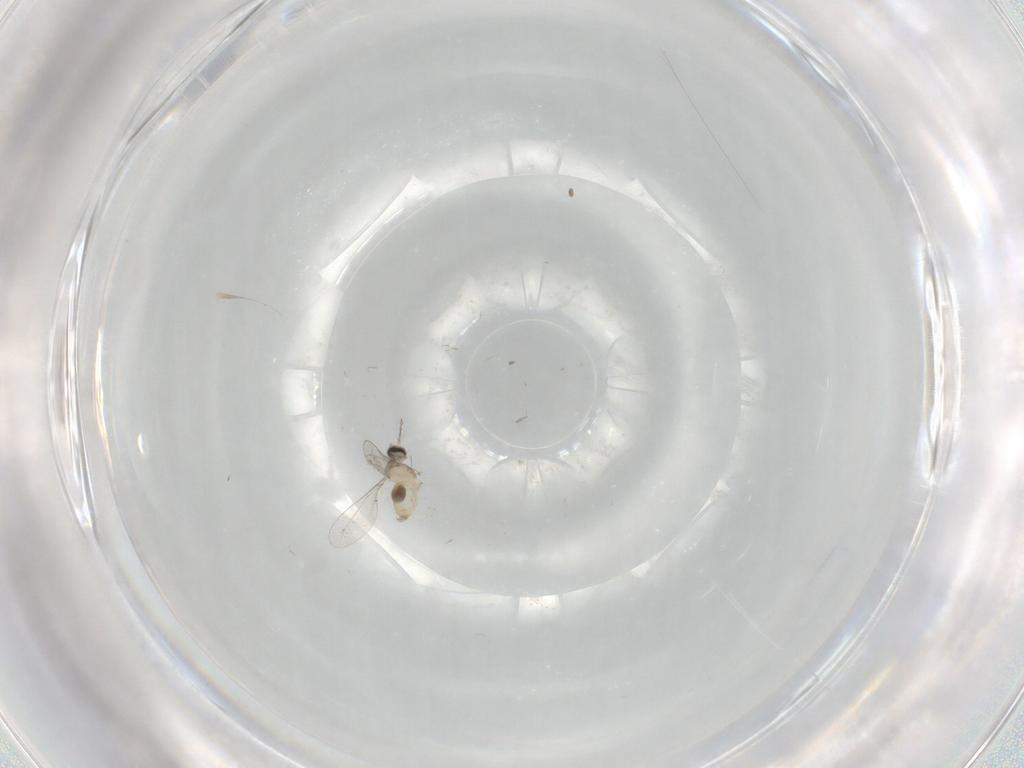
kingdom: Animalia
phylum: Arthropoda
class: Insecta
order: Diptera
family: Cecidomyiidae
